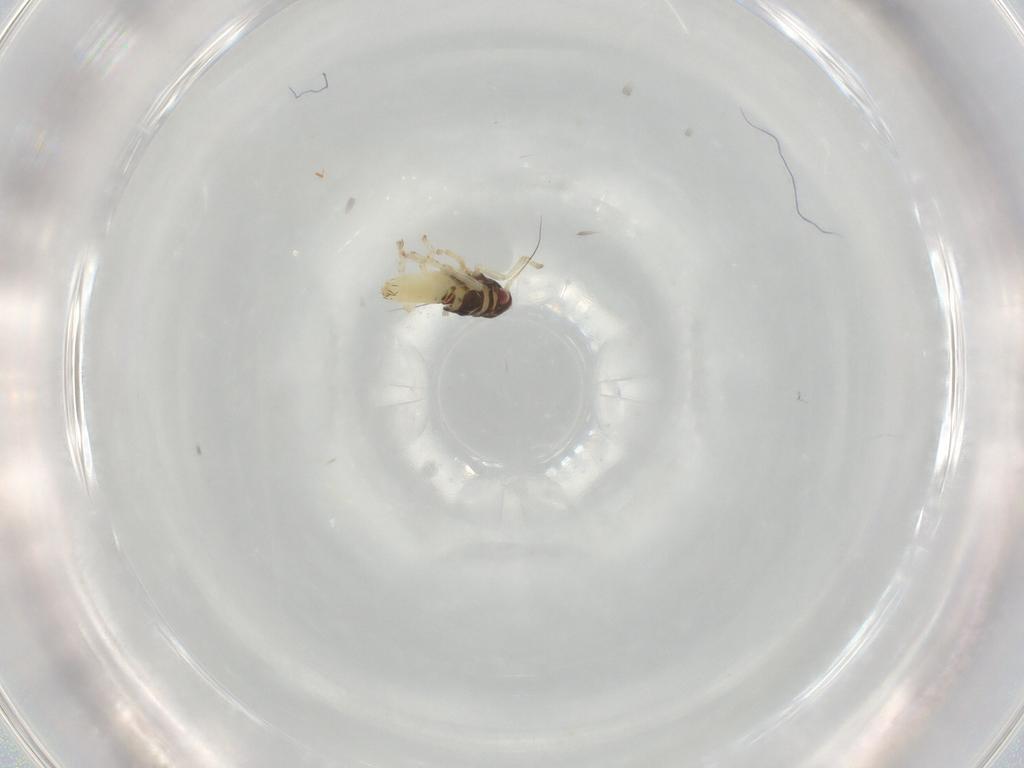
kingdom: Animalia
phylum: Arthropoda
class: Insecta
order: Hemiptera
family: Cicadellidae
